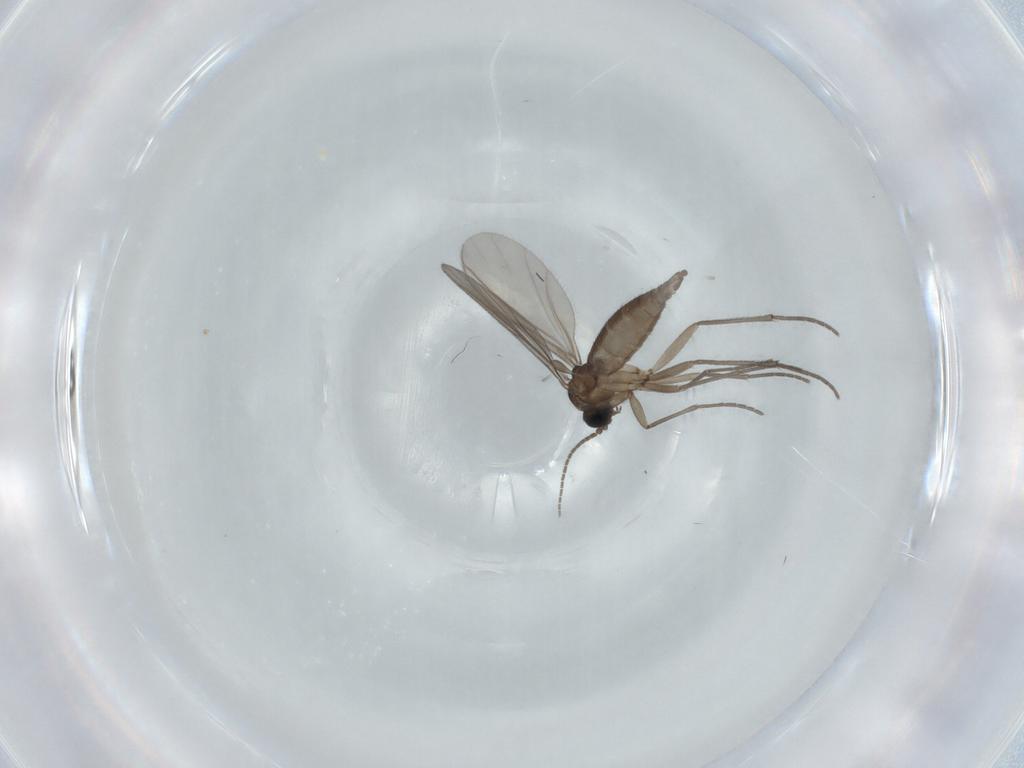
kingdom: Animalia
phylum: Arthropoda
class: Insecta
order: Diptera
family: Sciaridae
